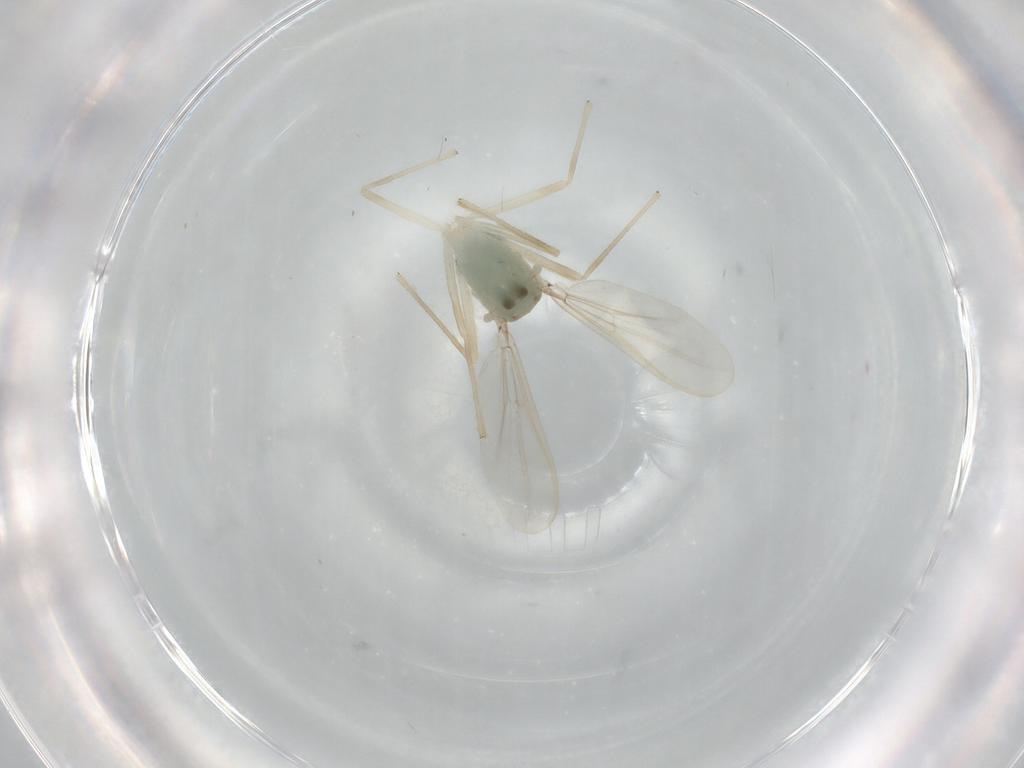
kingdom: Animalia
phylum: Arthropoda
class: Insecta
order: Diptera
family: Chironomidae
